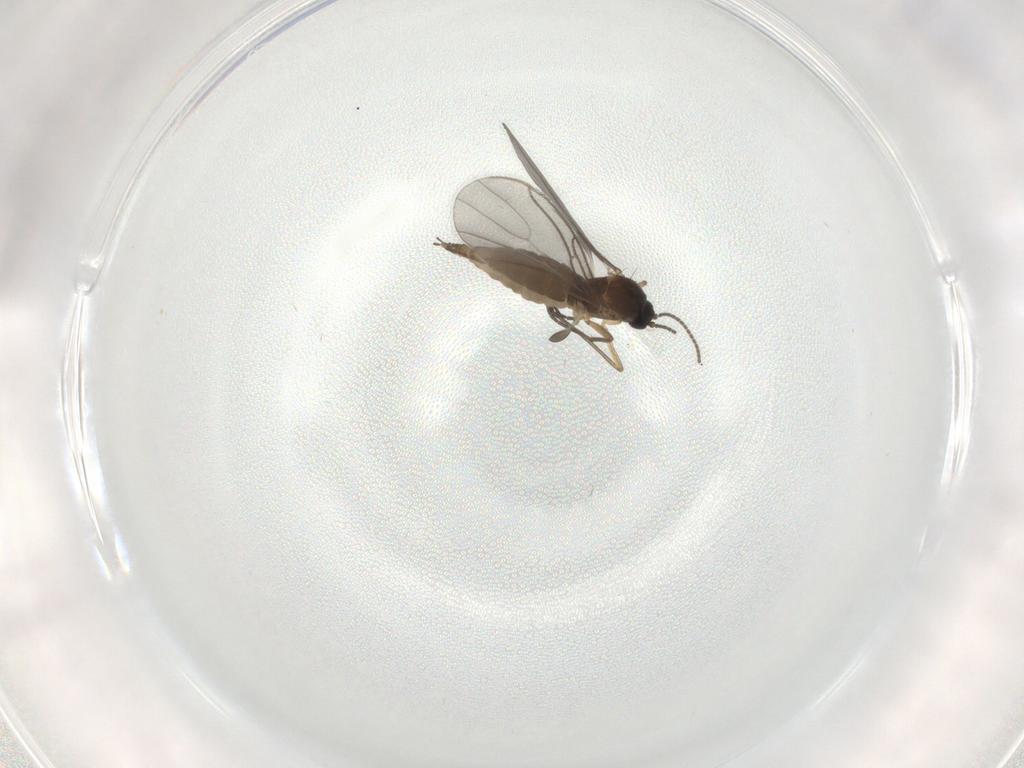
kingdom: Animalia
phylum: Arthropoda
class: Insecta
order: Diptera
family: Sciaridae
